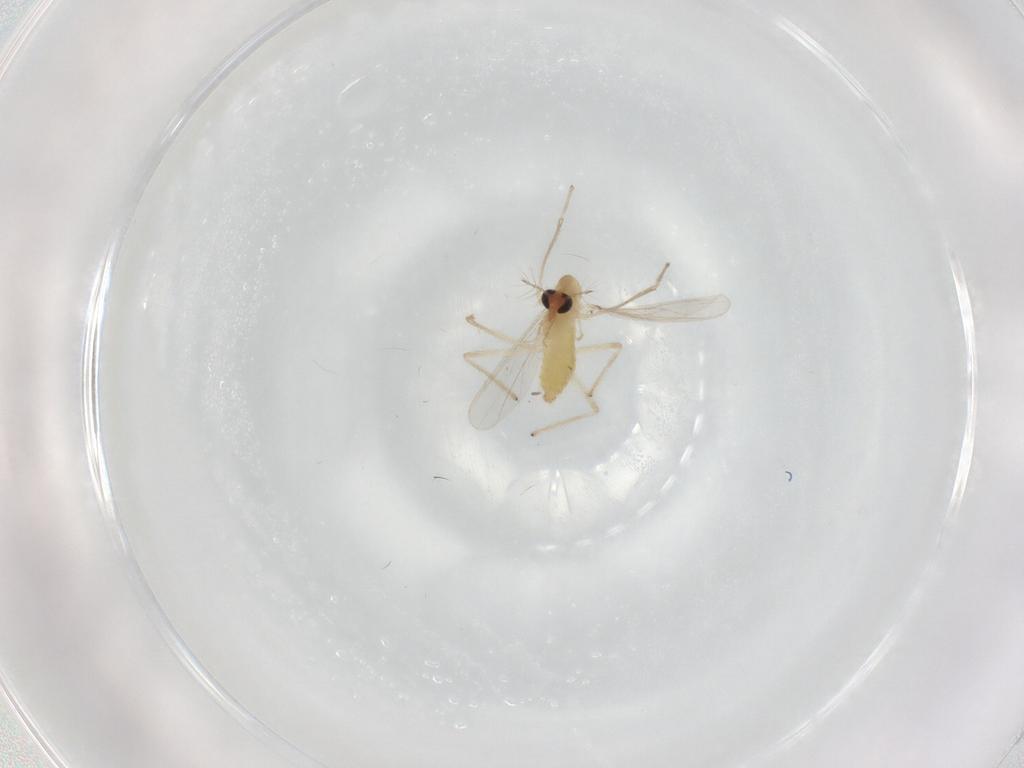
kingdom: Animalia
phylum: Arthropoda
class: Insecta
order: Diptera
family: Chironomidae
